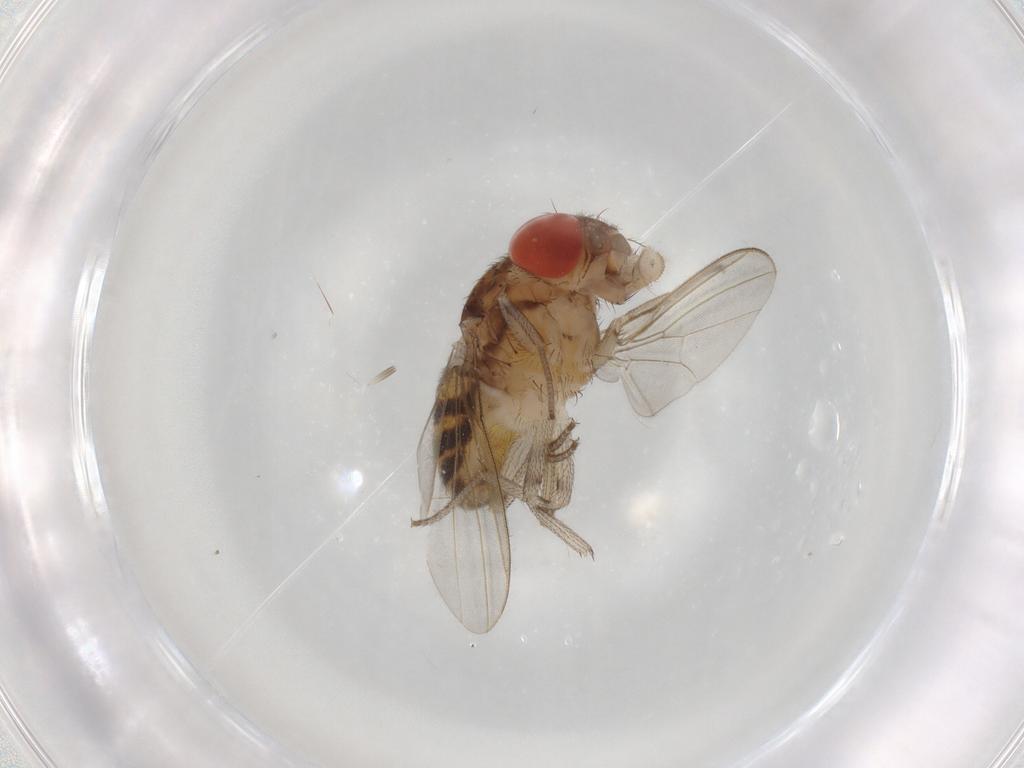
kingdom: Animalia
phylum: Arthropoda
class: Insecta
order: Diptera
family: Drosophilidae
